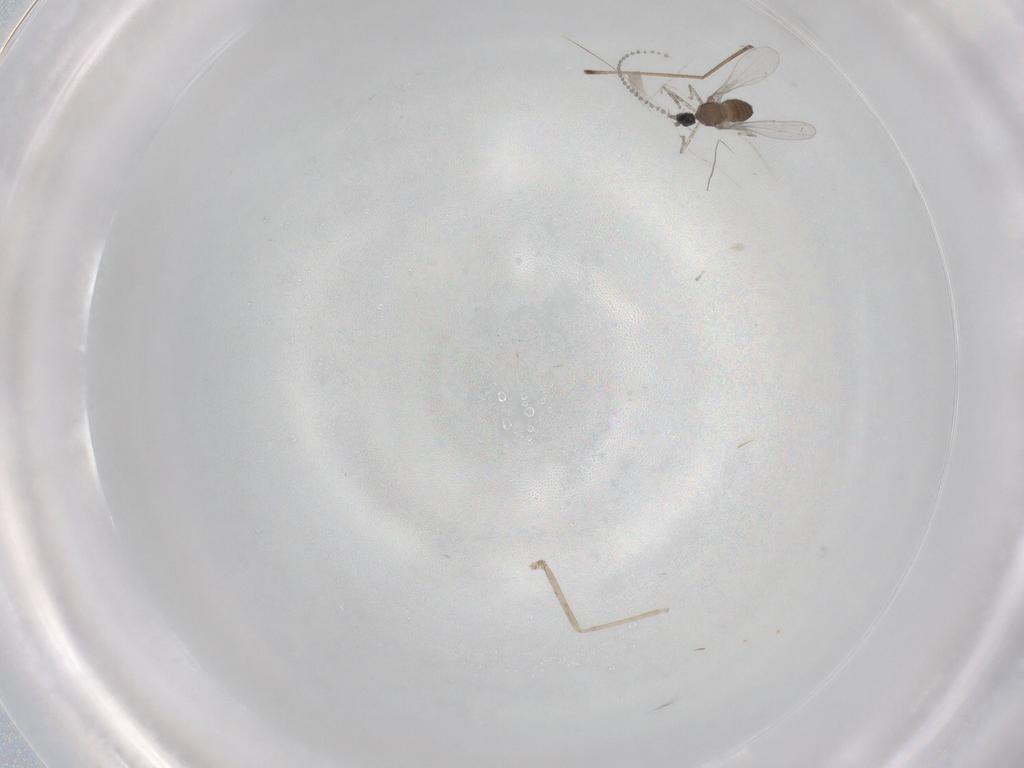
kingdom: Animalia
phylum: Arthropoda
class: Insecta
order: Diptera
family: Cecidomyiidae
